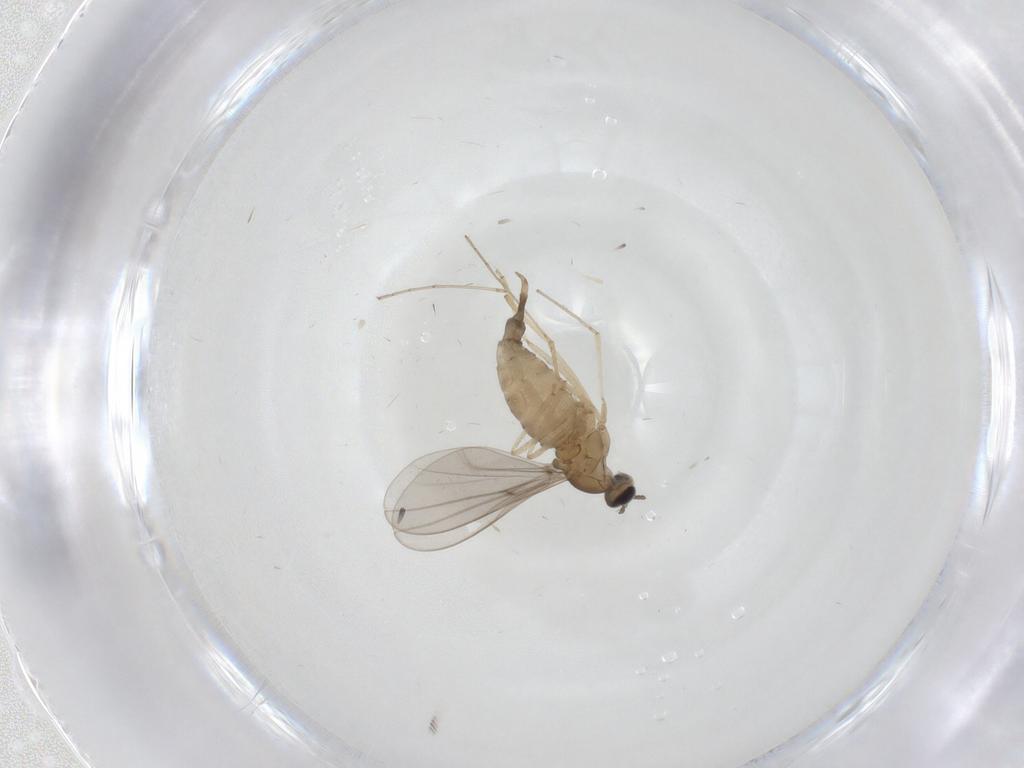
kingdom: Animalia
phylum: Arthropoda
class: Insecta
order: Diptera
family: Cecidomyiidae
